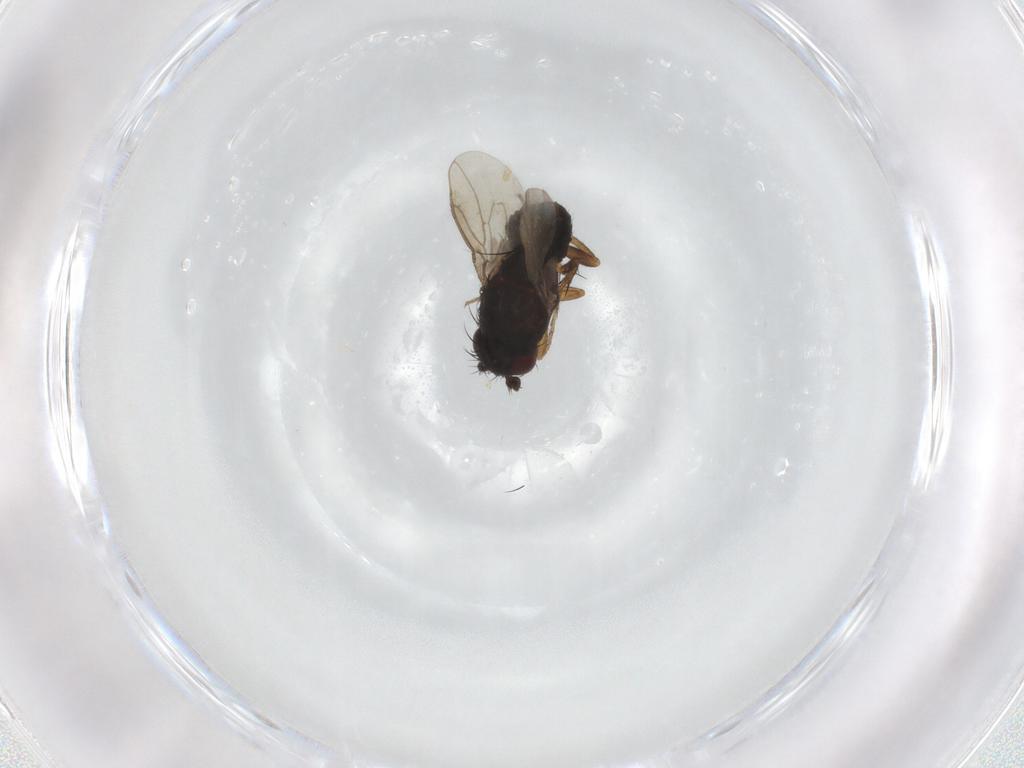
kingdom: Animalia
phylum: Arthropoda
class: Insecta
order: Diptera
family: Sphaeroceridae
